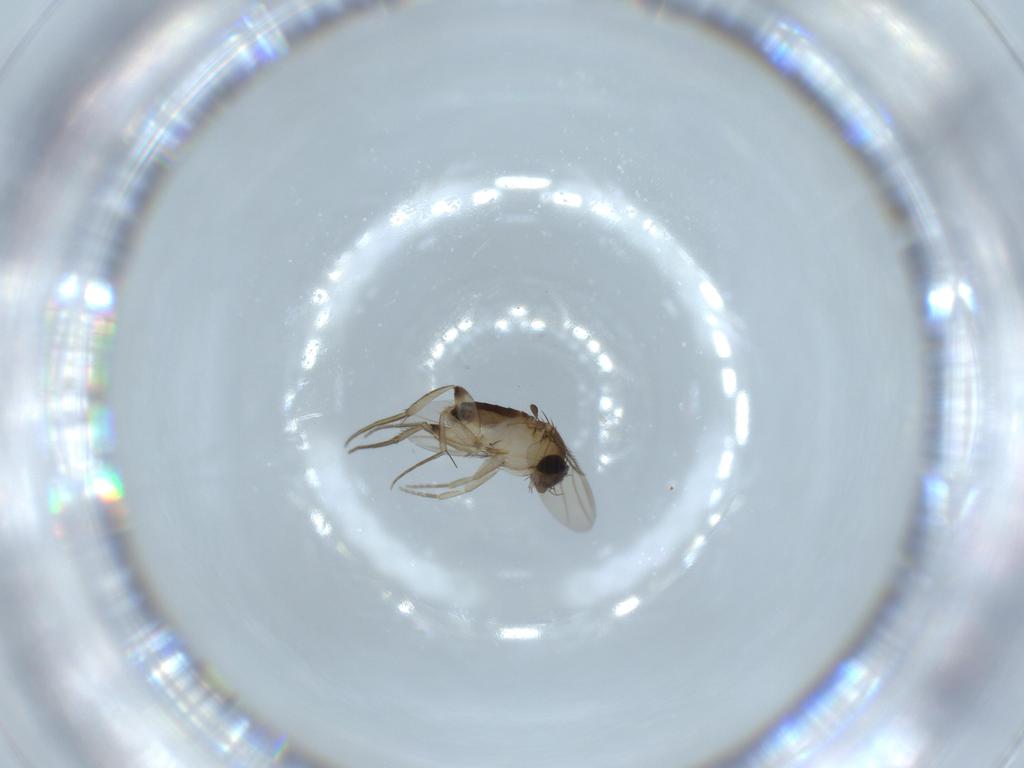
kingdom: Animalia
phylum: Arthropoda
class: Insecta
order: Diptera
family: Phoridae
